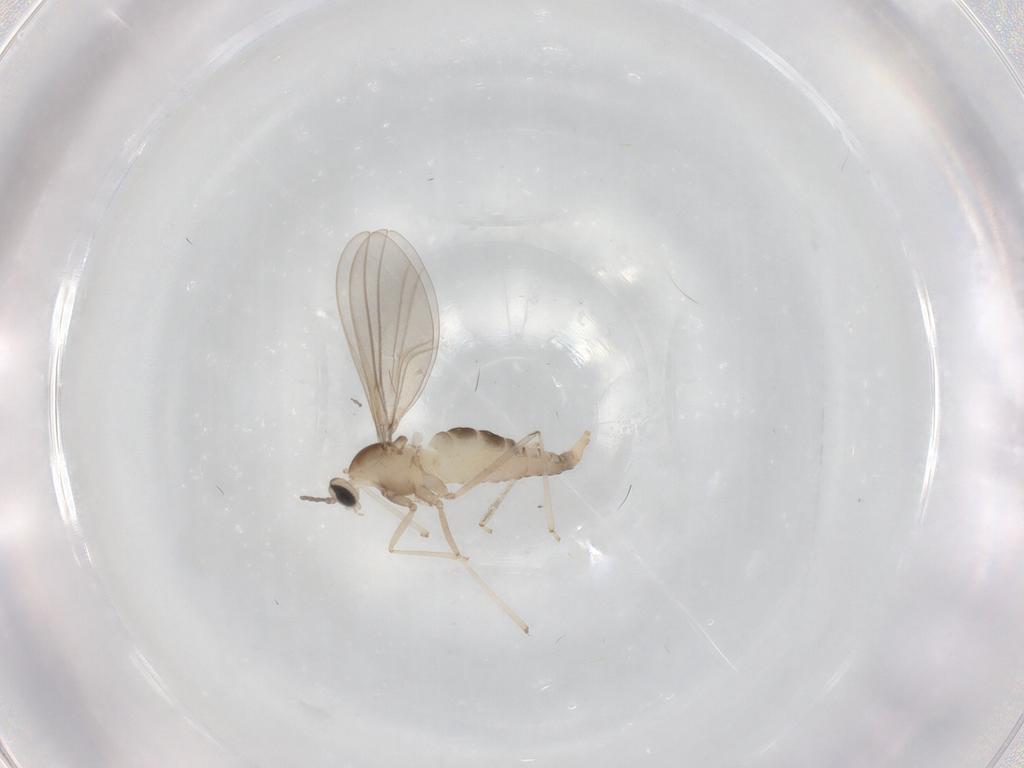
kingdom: Animalia
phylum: Arthropoda
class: Insecta
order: Diptera
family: Cecidomyiidae
